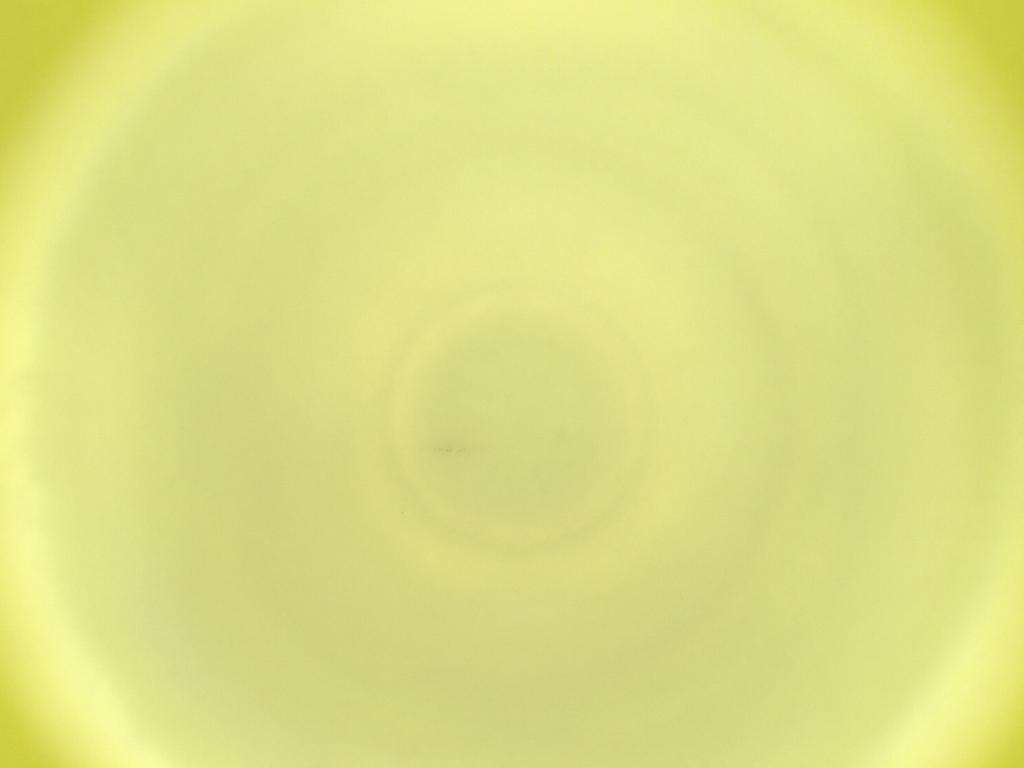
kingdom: Animalia
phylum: Arthropoda
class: Insecta
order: Diptera
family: Cecidomyiidae
